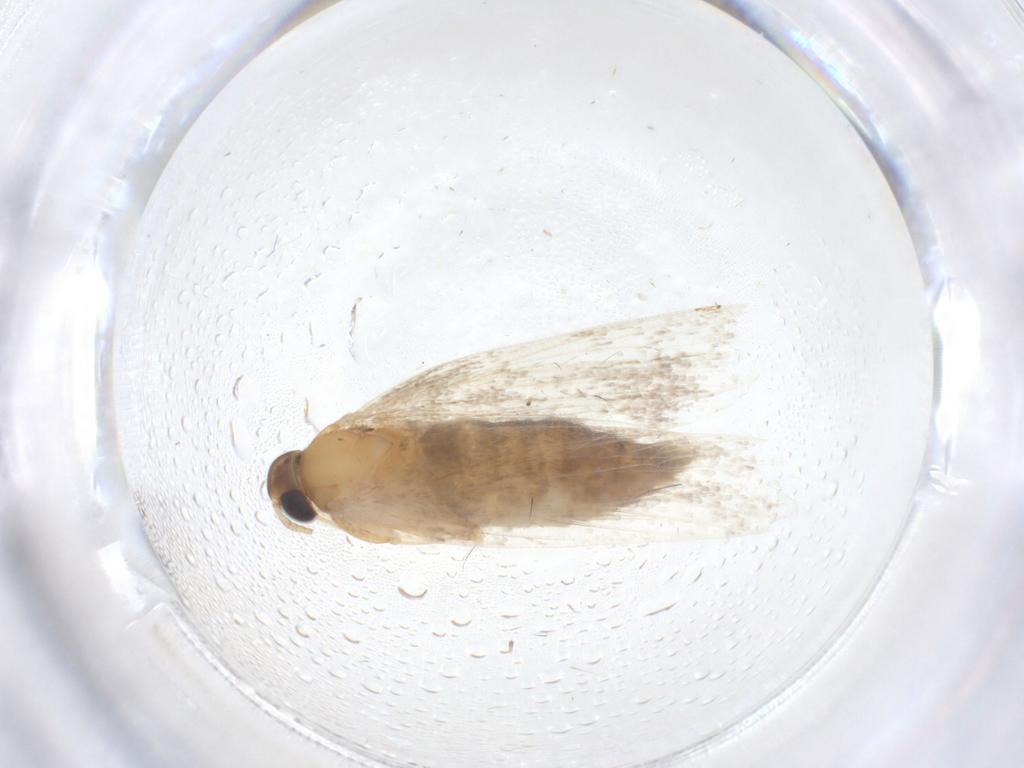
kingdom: Animalia
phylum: Arthropoda
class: Insecta
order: Lepidoptera
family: Oecophoridae
